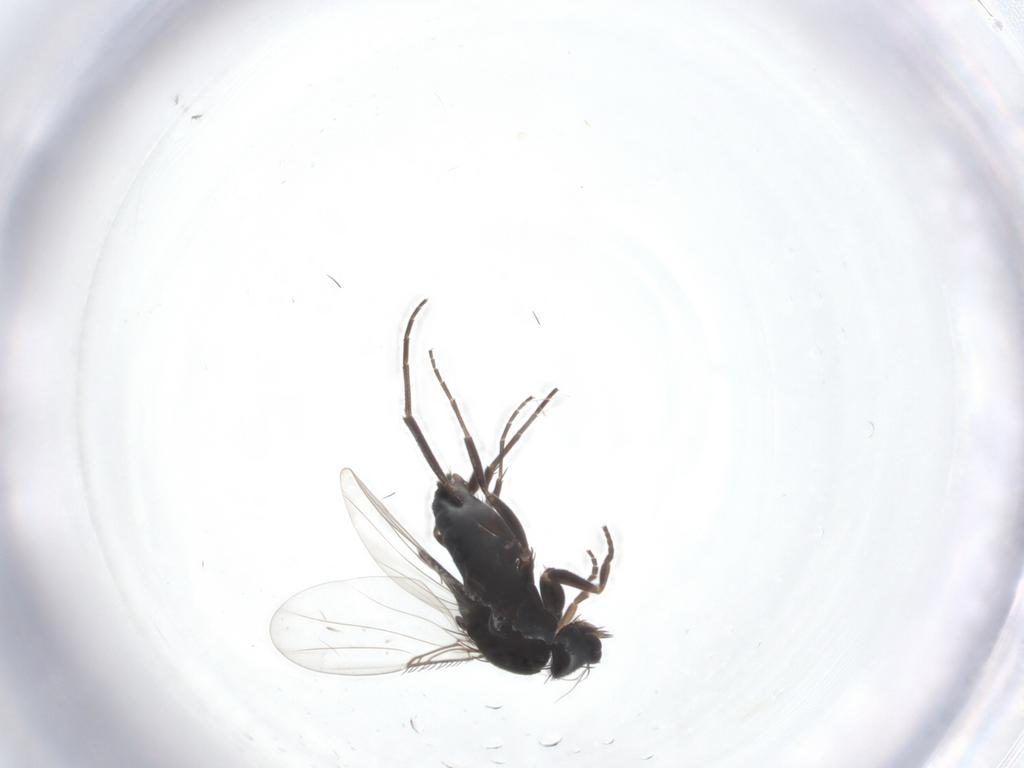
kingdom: Animalia
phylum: Arthropoda
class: Insecta
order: Diptera
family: Phoridae
